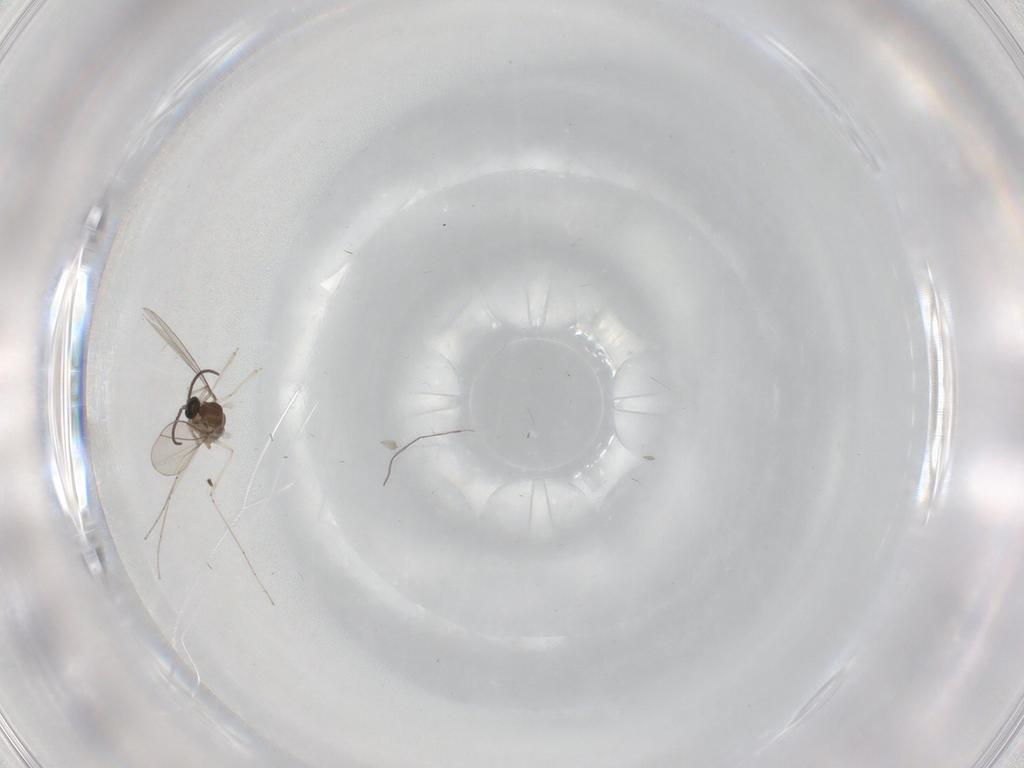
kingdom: Animalia
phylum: Arthropoda
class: Insecta
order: Diptera
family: Cecidomyiidae
